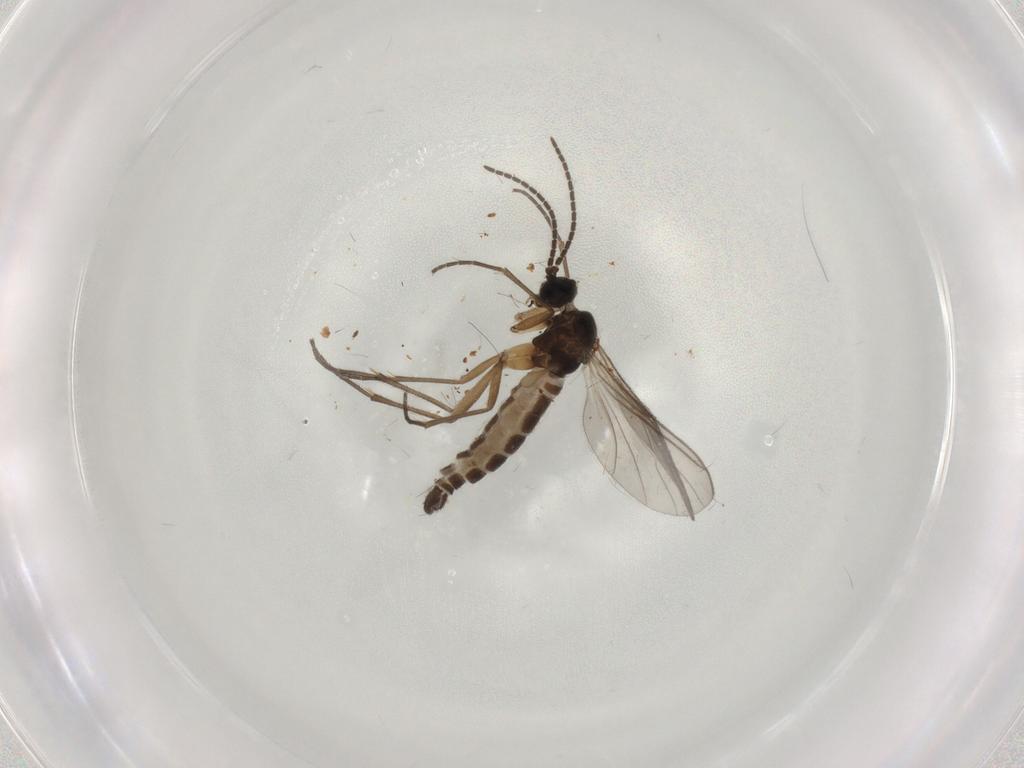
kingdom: Animalia
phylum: Arthropoda
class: Insecta
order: Diptera
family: Sciaridae
